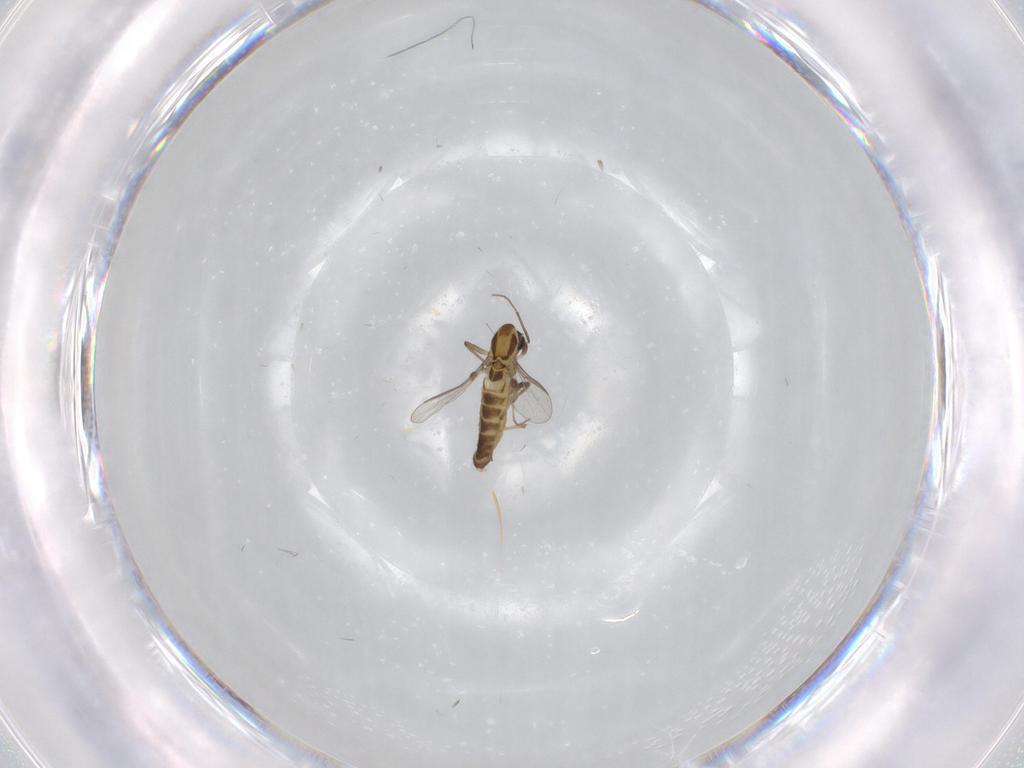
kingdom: Animalia
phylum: Arthropoda
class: Insecta
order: Diptera
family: Chironomidae
